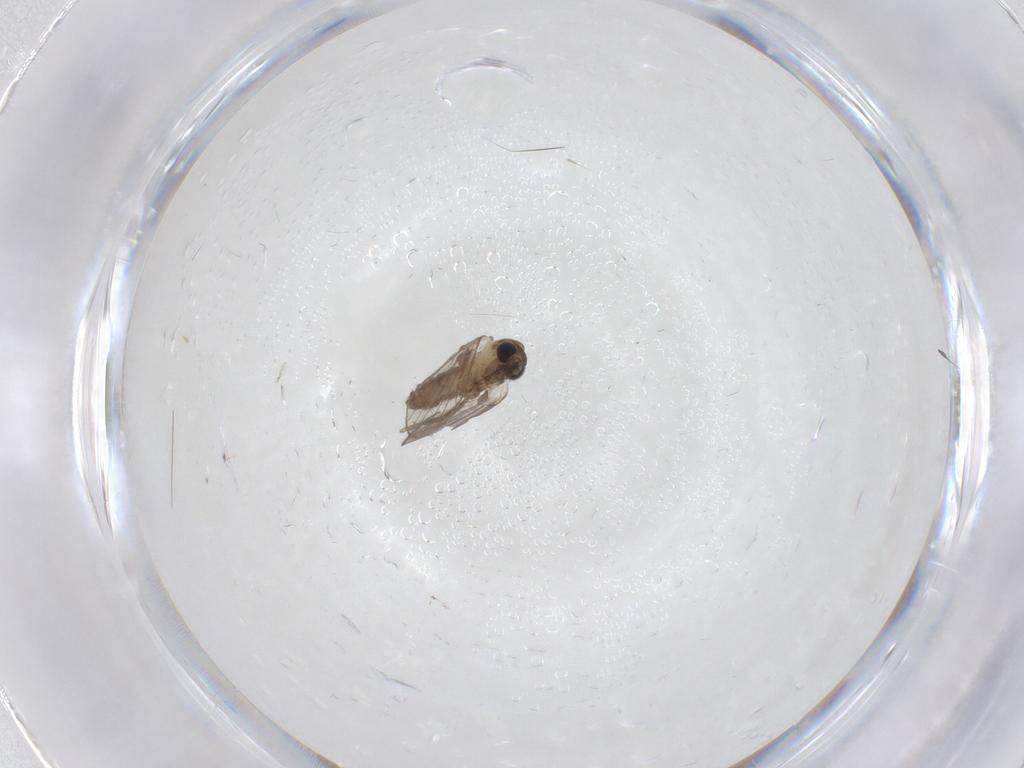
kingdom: Animalia
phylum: Arthropoda
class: Insecta
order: Diptera
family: Ceratopogonidae
